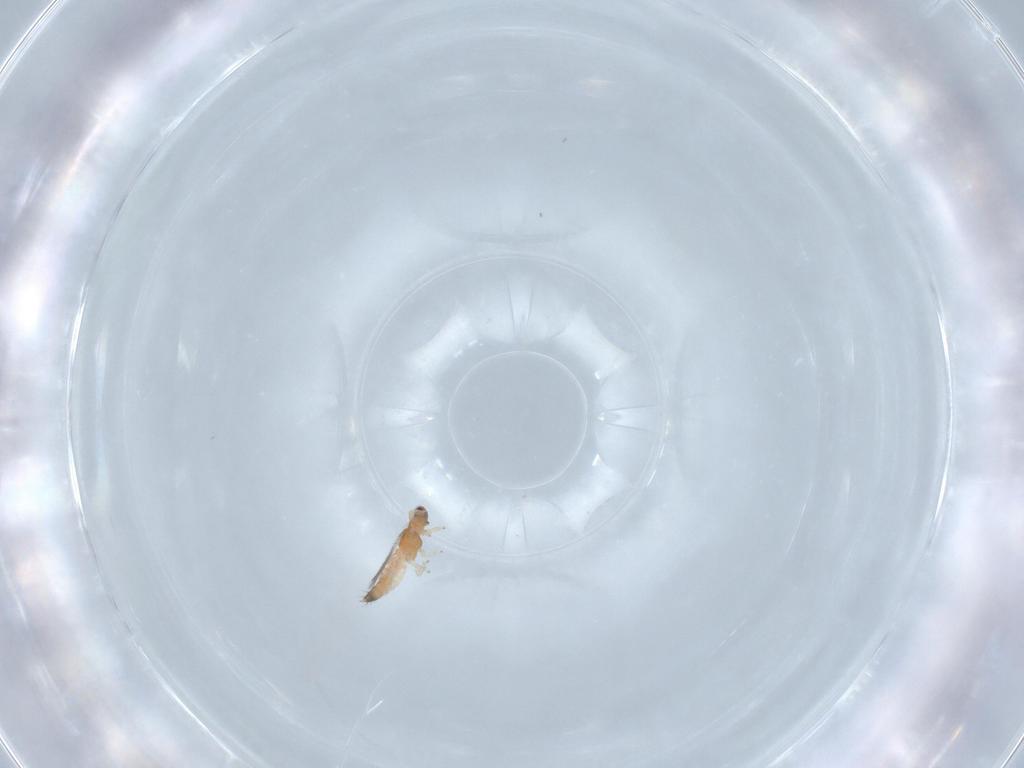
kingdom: Animalia
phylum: Arthropoda
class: Insecta
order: Thysanoptera
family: Thripidae
